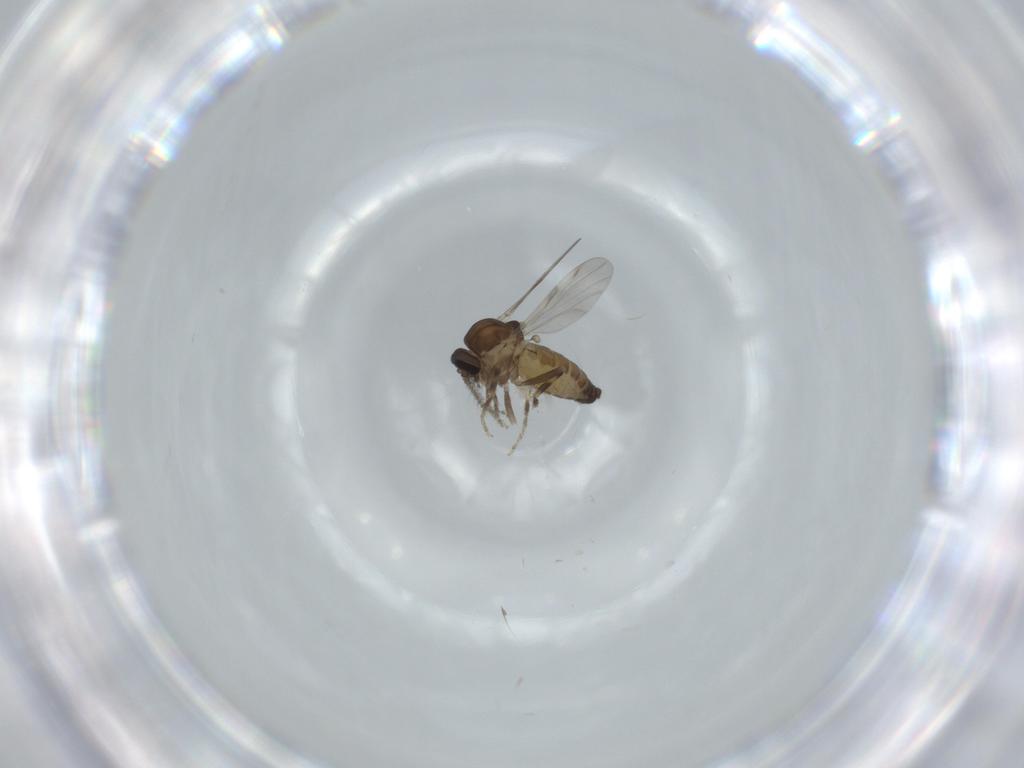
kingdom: Animalia
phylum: Arthropoda
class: Insecta
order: Diptera
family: Ceratopogonidae
